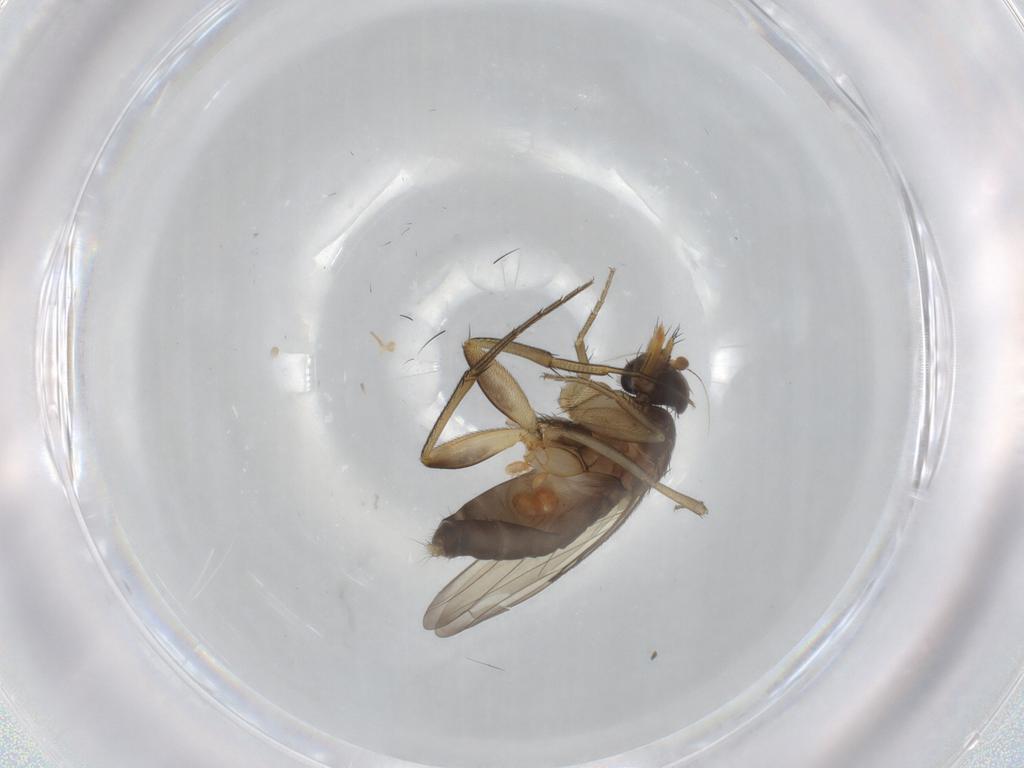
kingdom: Animalia
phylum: Arthropoda
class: Insecta
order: Diptera
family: Phoridae
